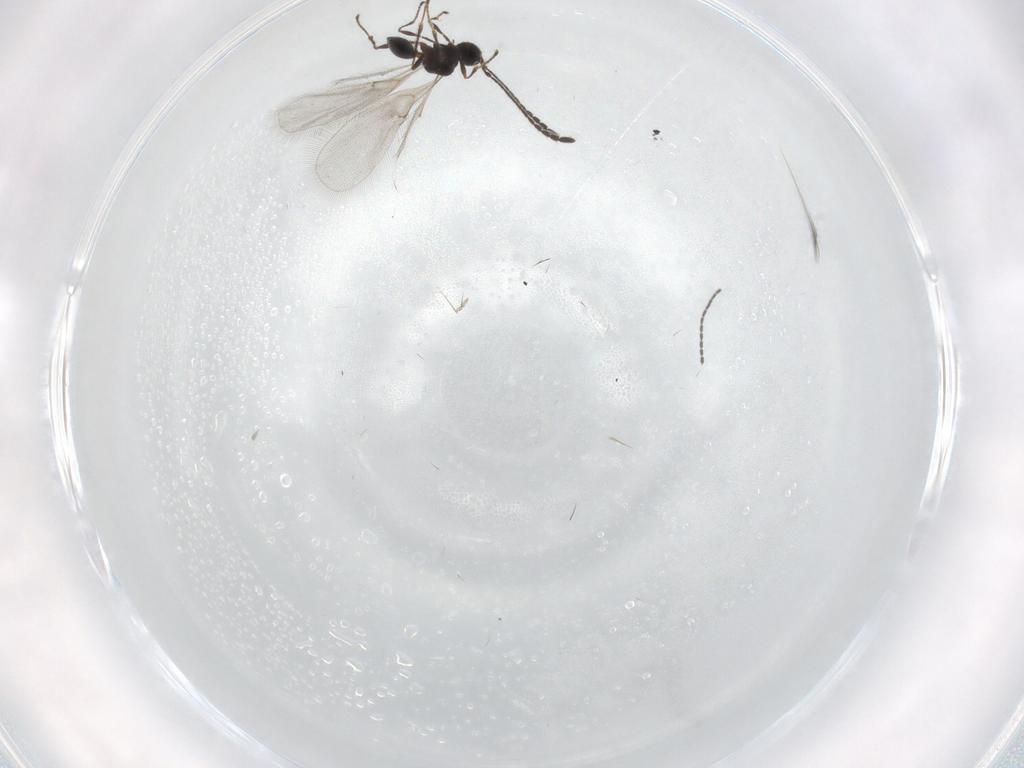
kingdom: Animalia
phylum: Arthropoda
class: Insecta
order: Hymenoptera
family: Diapriidae
